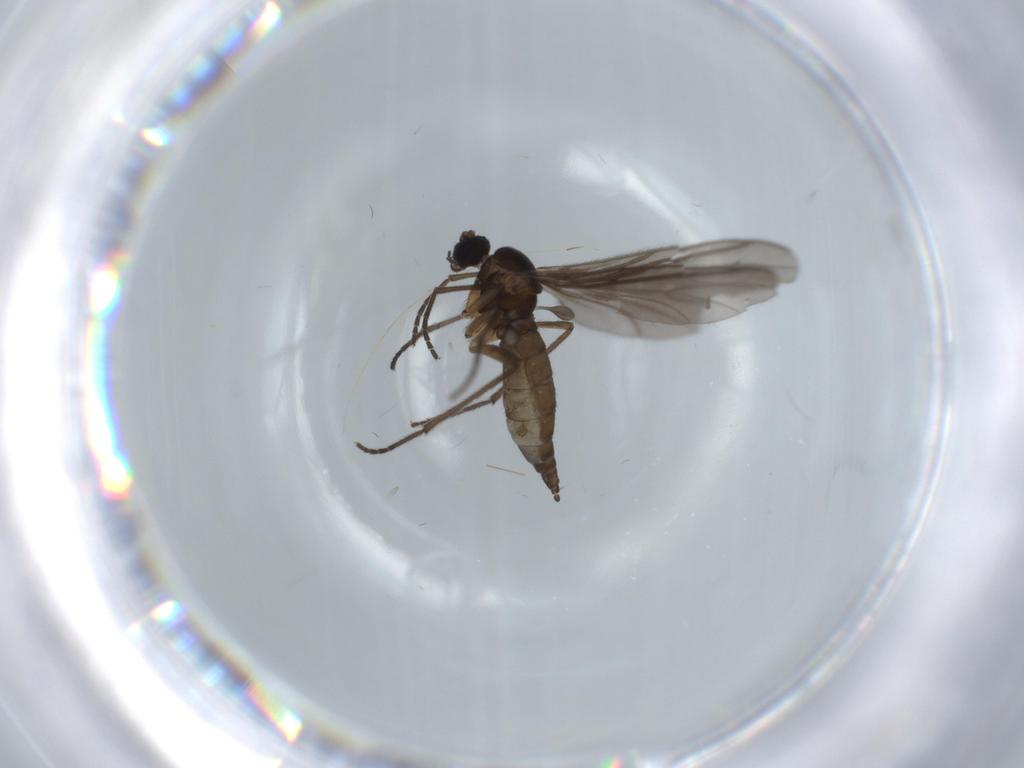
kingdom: Animalia
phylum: Arthropoda
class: Insecta
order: Diptera
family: Sciaridae
